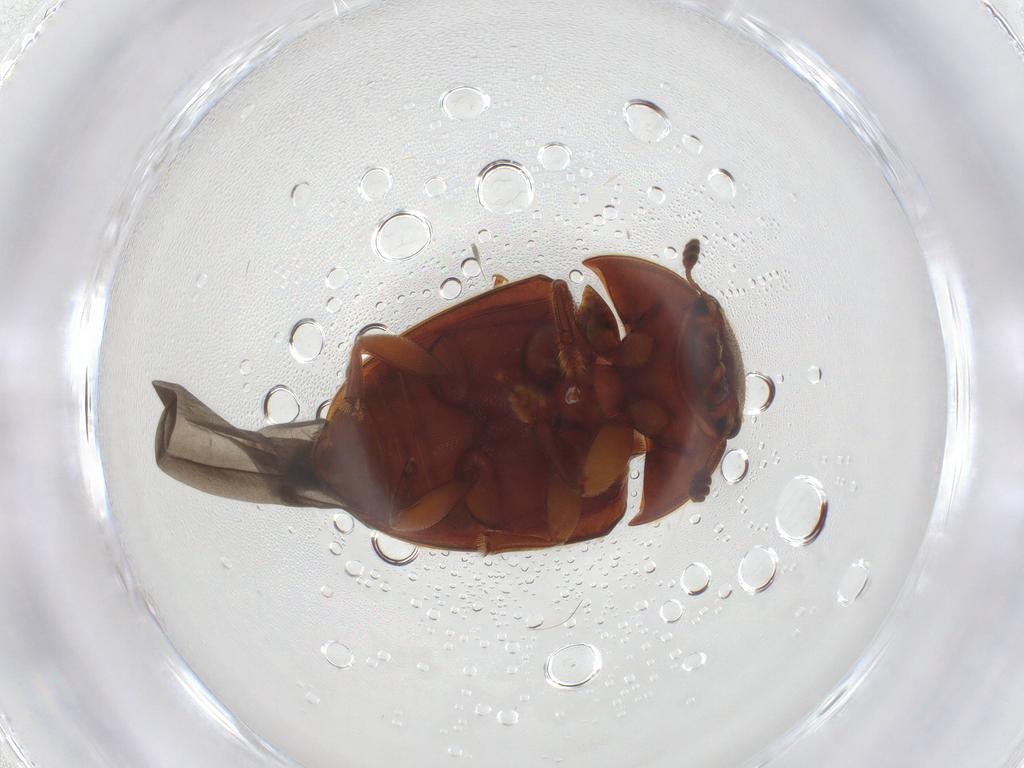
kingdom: Animalia
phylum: Arthropoda
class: Insecta
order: Coleoptera
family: Nitidulidae
